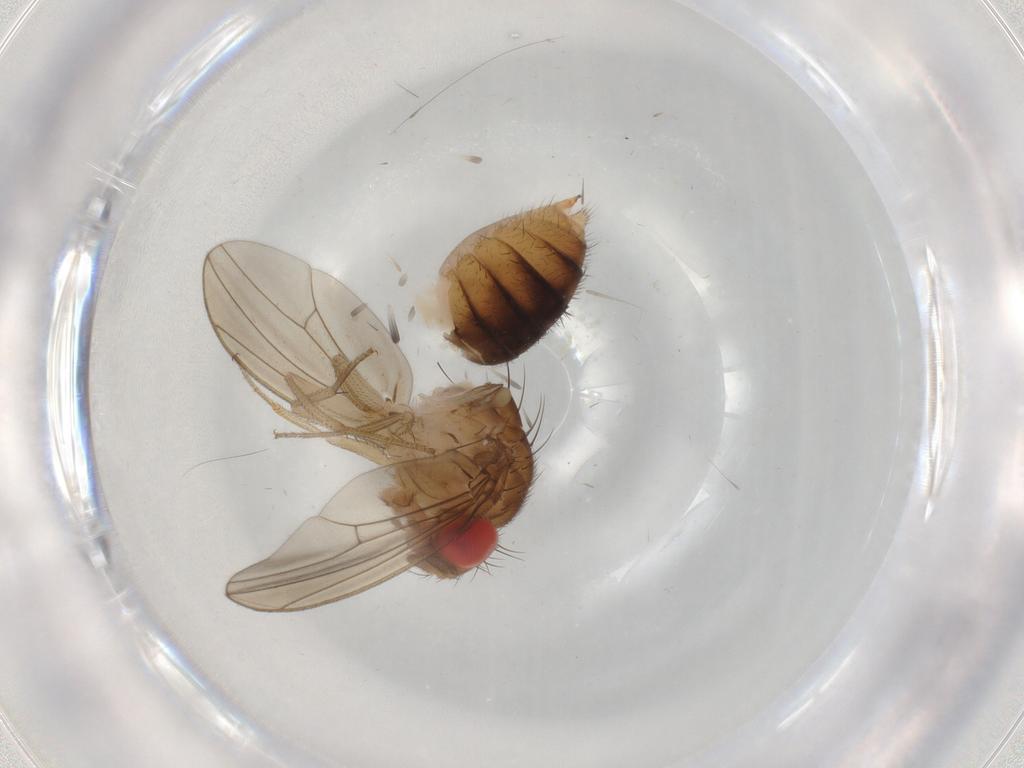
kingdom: Animalia
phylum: Arthropoda
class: Insecta
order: Diptera
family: Drosophilidae
